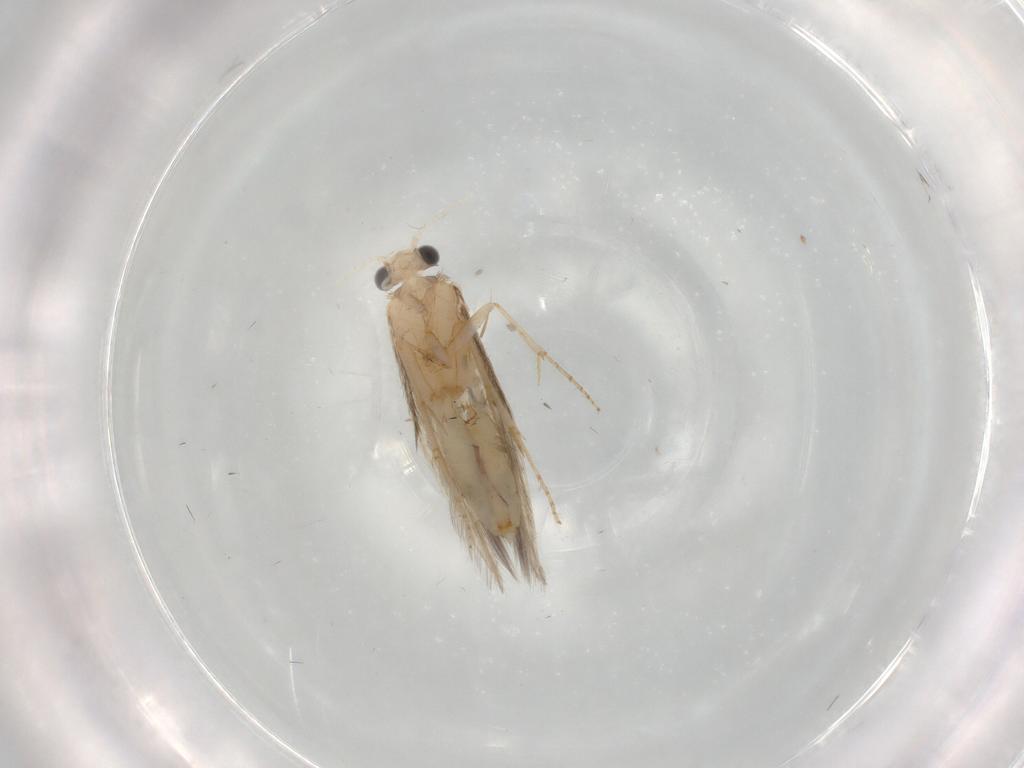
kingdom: Animalia
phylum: Arthropoda
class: Insecta
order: Trichoptera
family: Hydroptilidae
